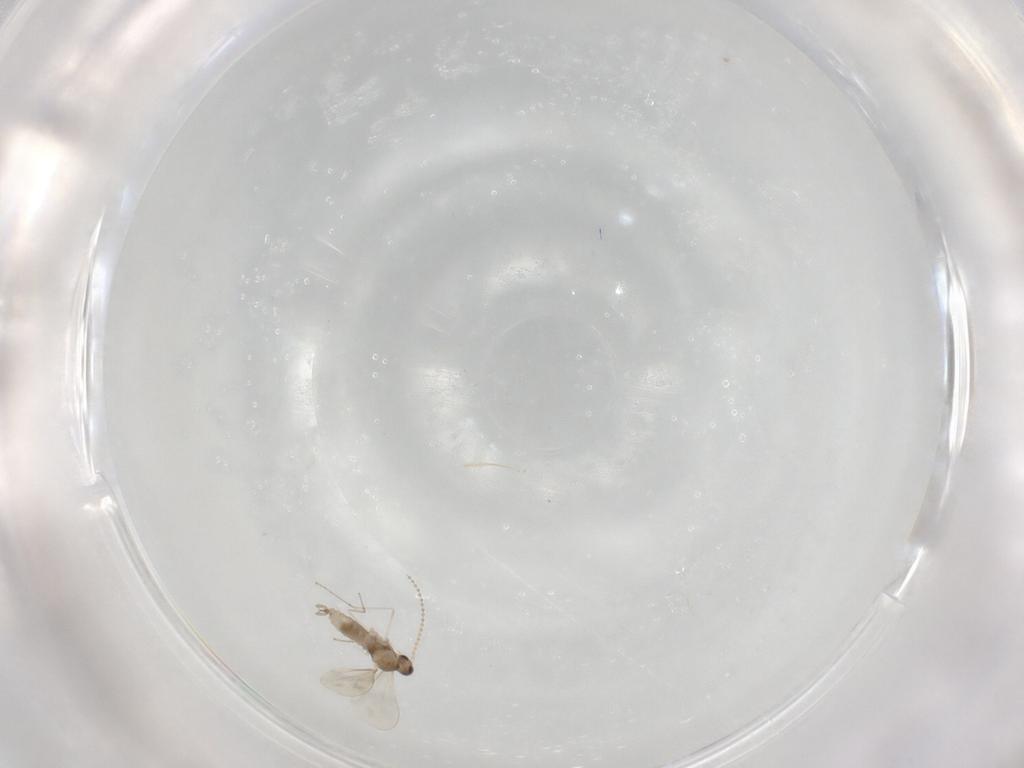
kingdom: Animalia
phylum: Arthropoda
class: Insecta
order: Diptera
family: Cecidomyiidae
